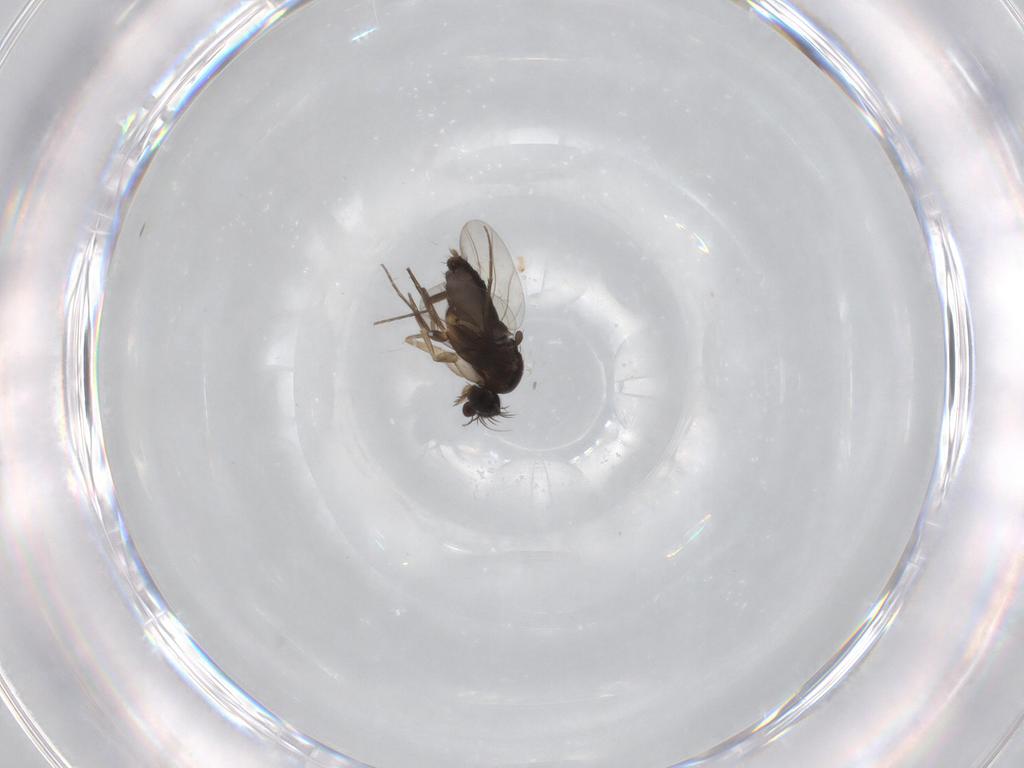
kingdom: Animalia
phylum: Arthropoda
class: Insecta
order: Diptera
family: Phoridae
